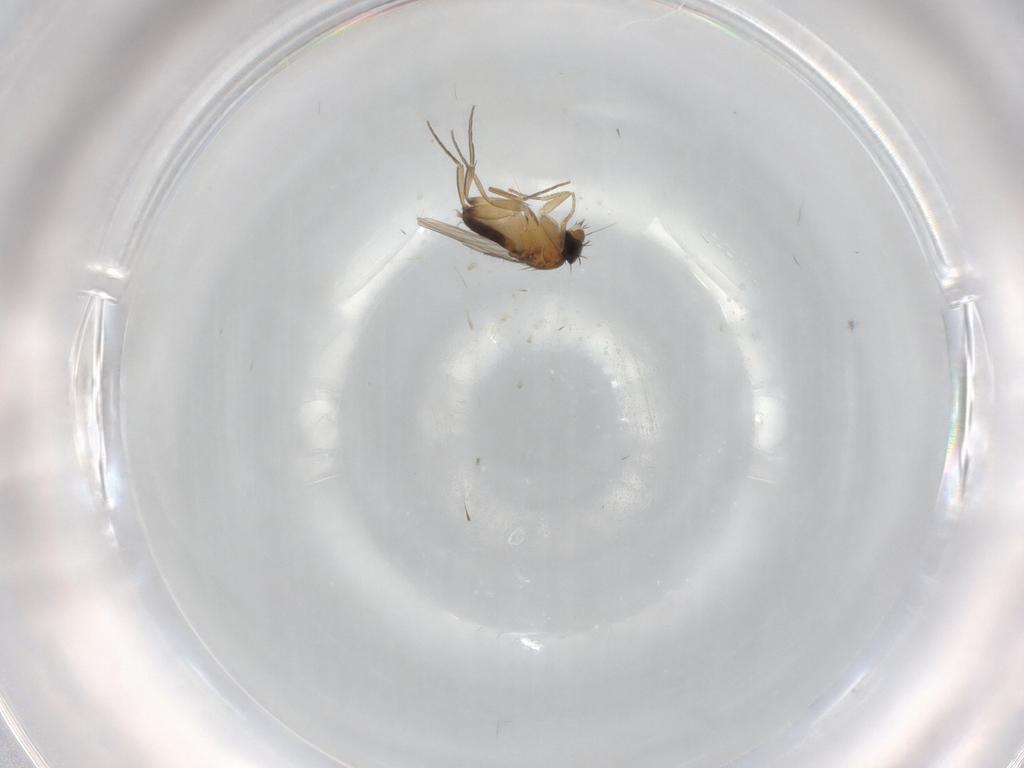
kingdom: Animalia
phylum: Arthropoda
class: Insecta
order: Diptera
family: Phoridae
